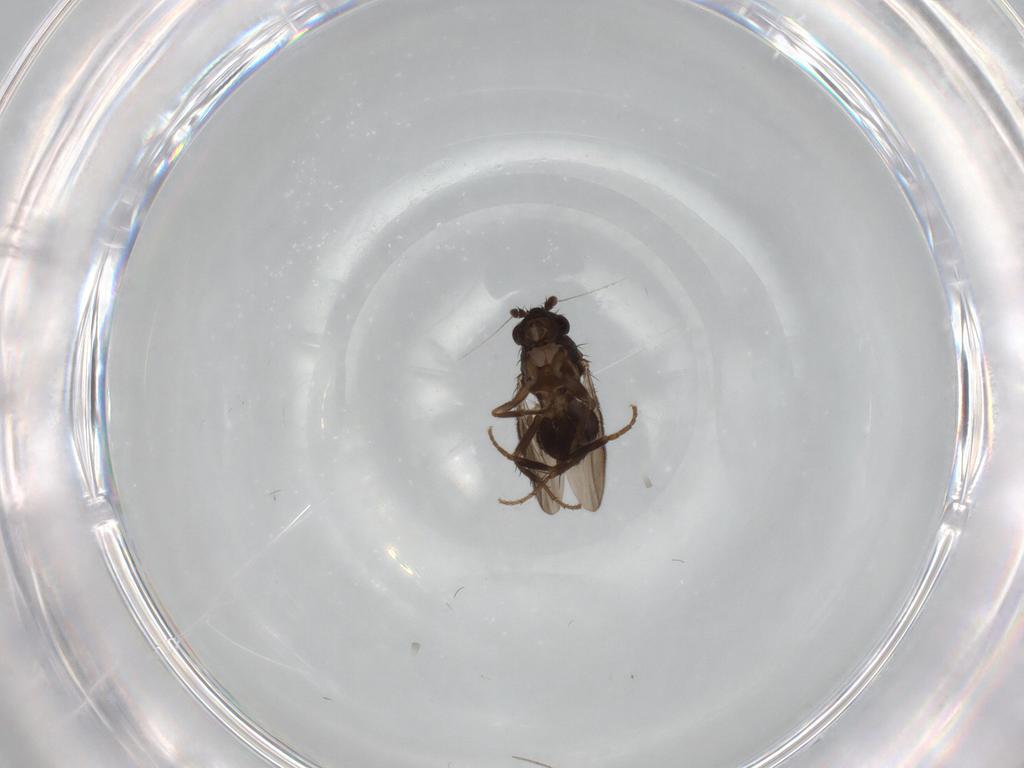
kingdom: Animalia
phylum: Arthropoda
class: Insecta
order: Diptera
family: Sphaeroceridae
